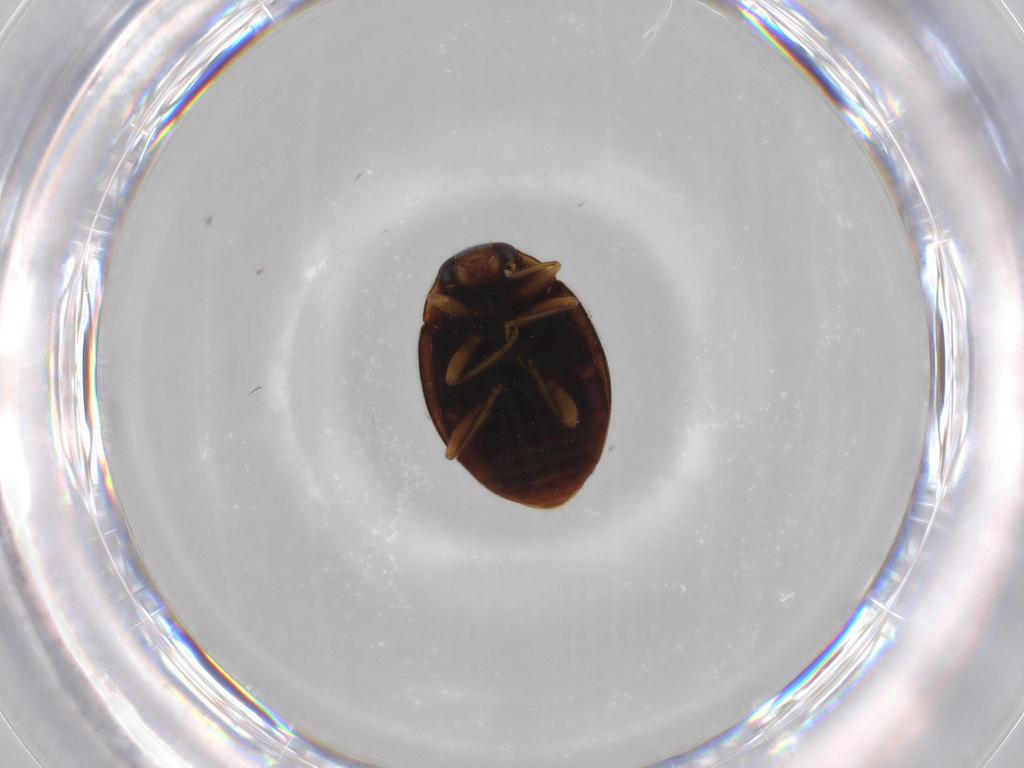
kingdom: Animalia
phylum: Arthropoda
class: Insecta
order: Coleoptera
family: Coccinellidae
